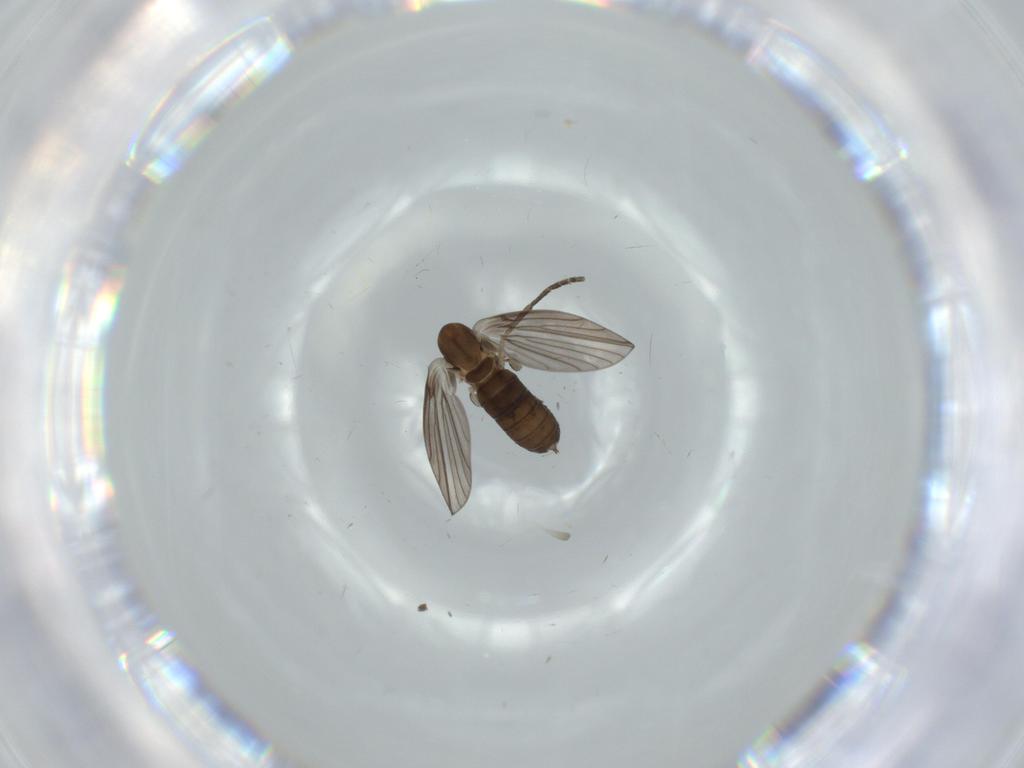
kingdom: Animalia
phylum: Arthropoda
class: Insecta
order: Diptera
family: Psychodidae
